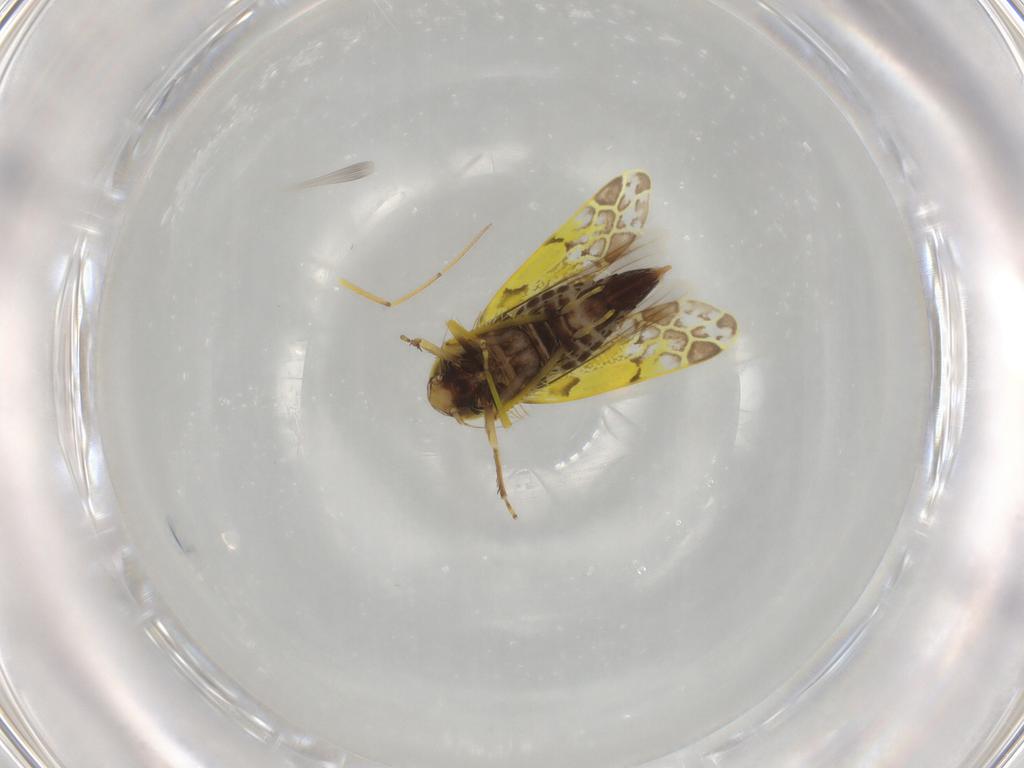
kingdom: Animalia
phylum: Arthropoda
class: Insecta
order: Hemiptera
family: Cicadellidae
